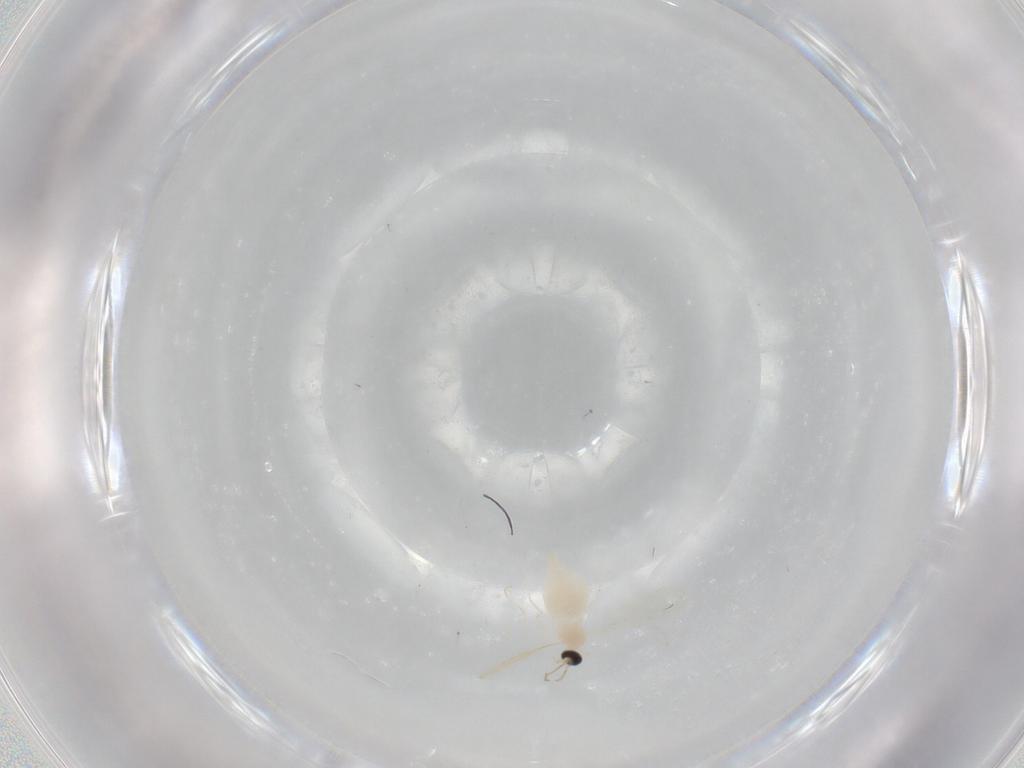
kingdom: Animalia
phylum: Arthropoda
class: Insecta
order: Diptera
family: Cecidomyiidae
